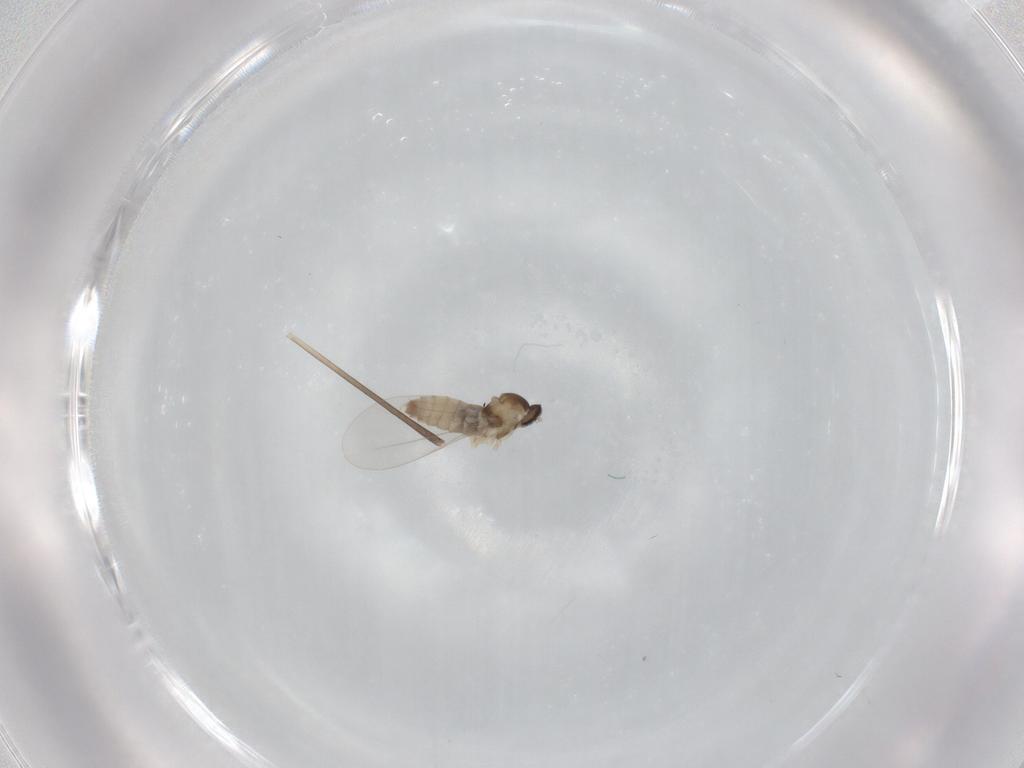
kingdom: Animalia
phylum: Arthropoda
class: Insecta
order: Diptera
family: Cecidomyiidae
